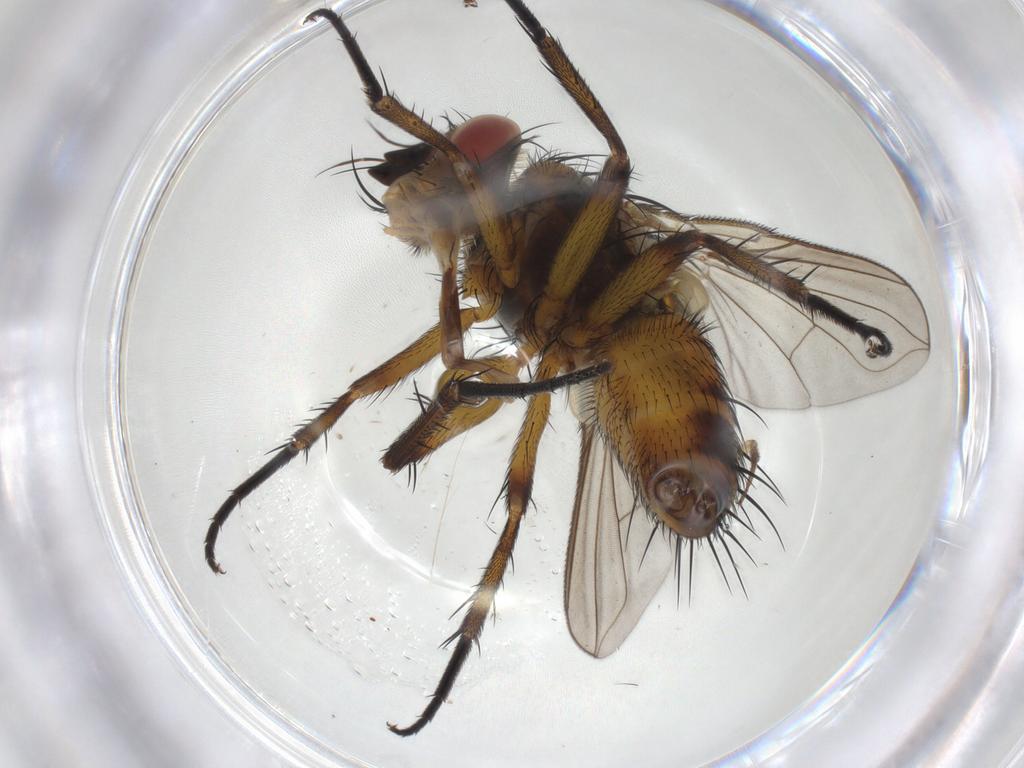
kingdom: Animalia
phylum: Arthropoda
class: Insecta
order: Diptera
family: Tachinidae
